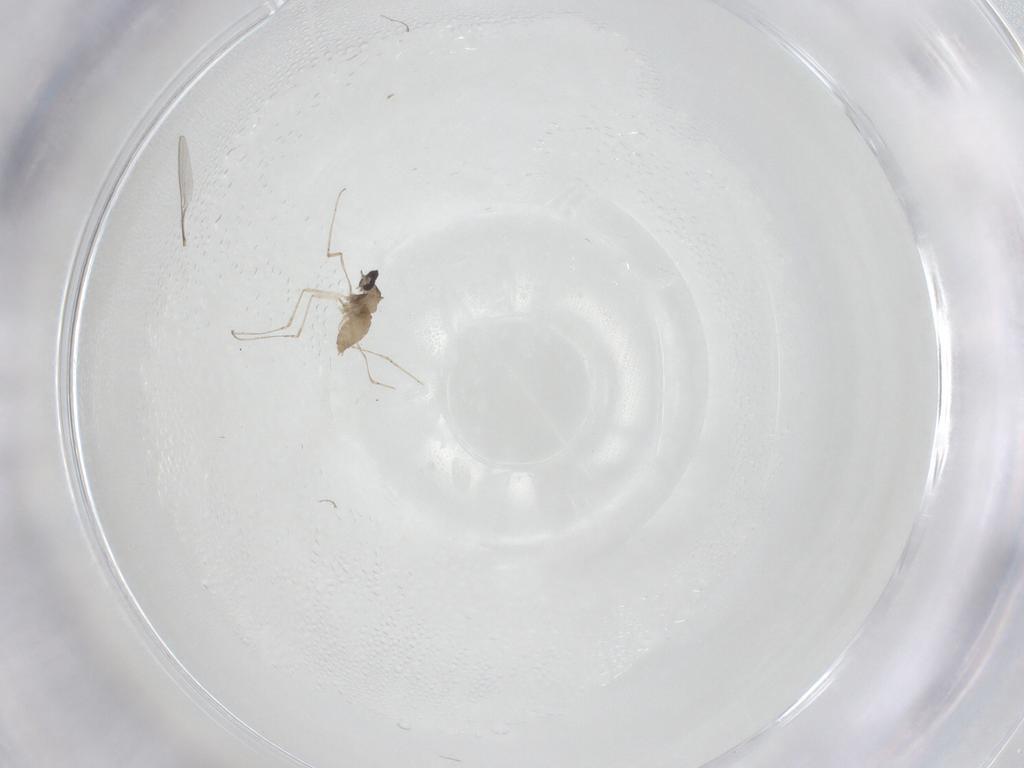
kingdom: Animalia
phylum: Arthropoda
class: Insecta
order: Diptera
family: Cecidomyiidae
